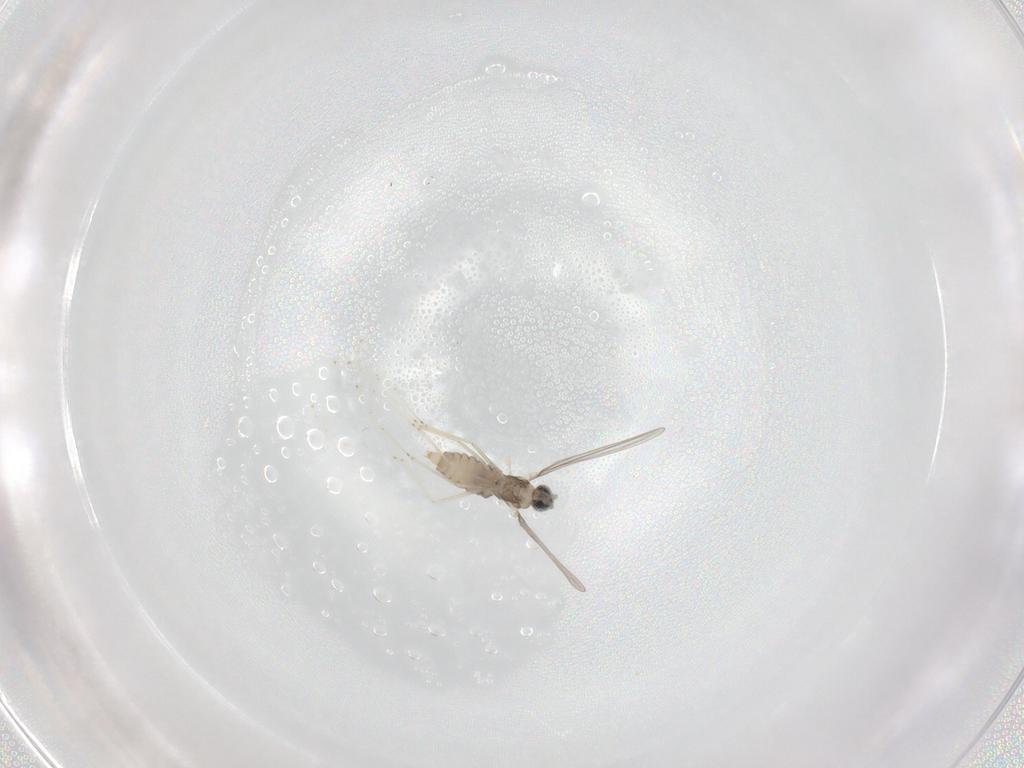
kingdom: Animalia
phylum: Arthropoda
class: Insecta
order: Diptera
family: Cecidomyiidae
